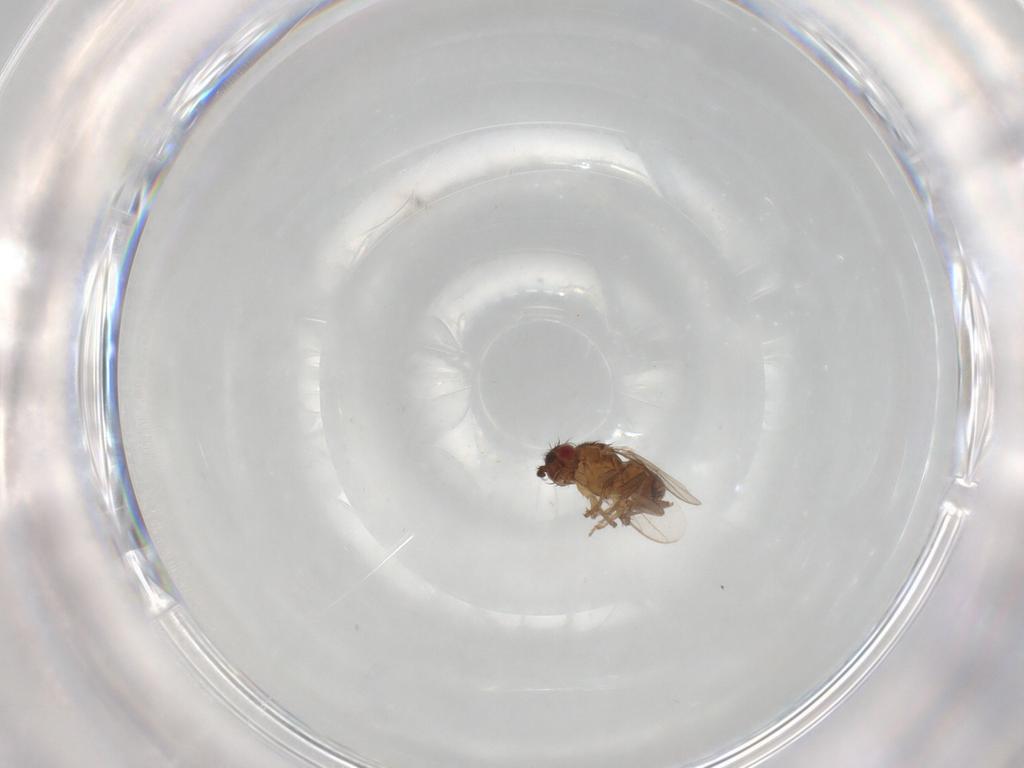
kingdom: Animalia
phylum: Arthropoda
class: Insecta
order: Diptera
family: Sphaeroceridae
